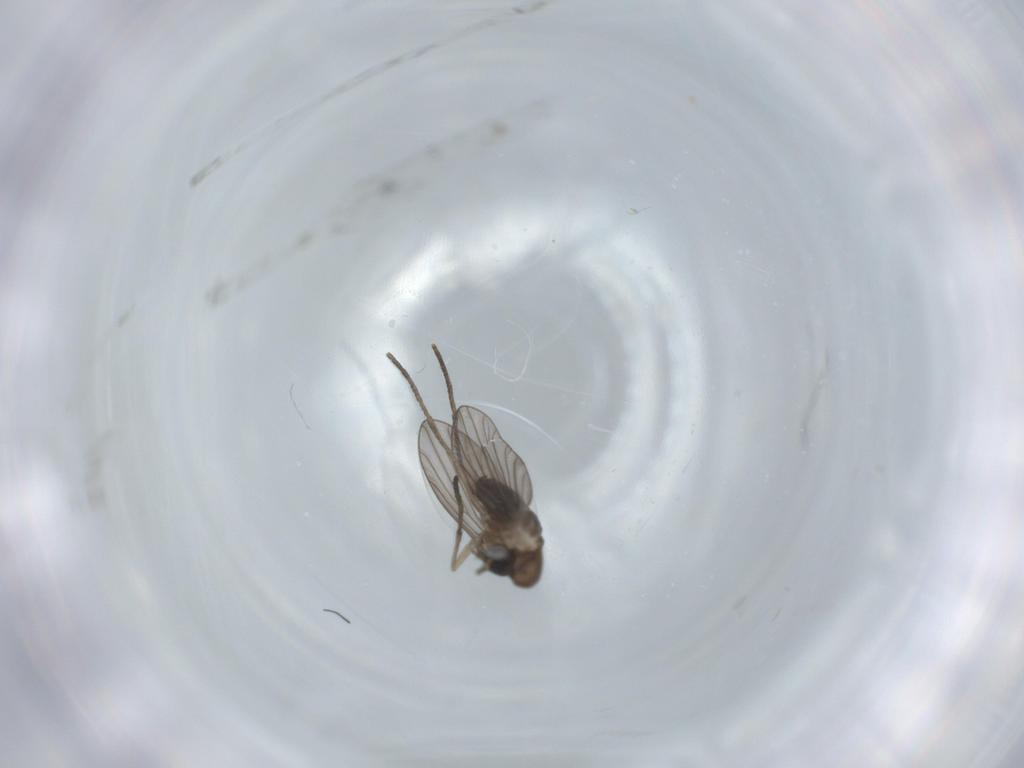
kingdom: Animalia
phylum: Arthropoda
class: Insecta
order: Diptera
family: Psychodidae
